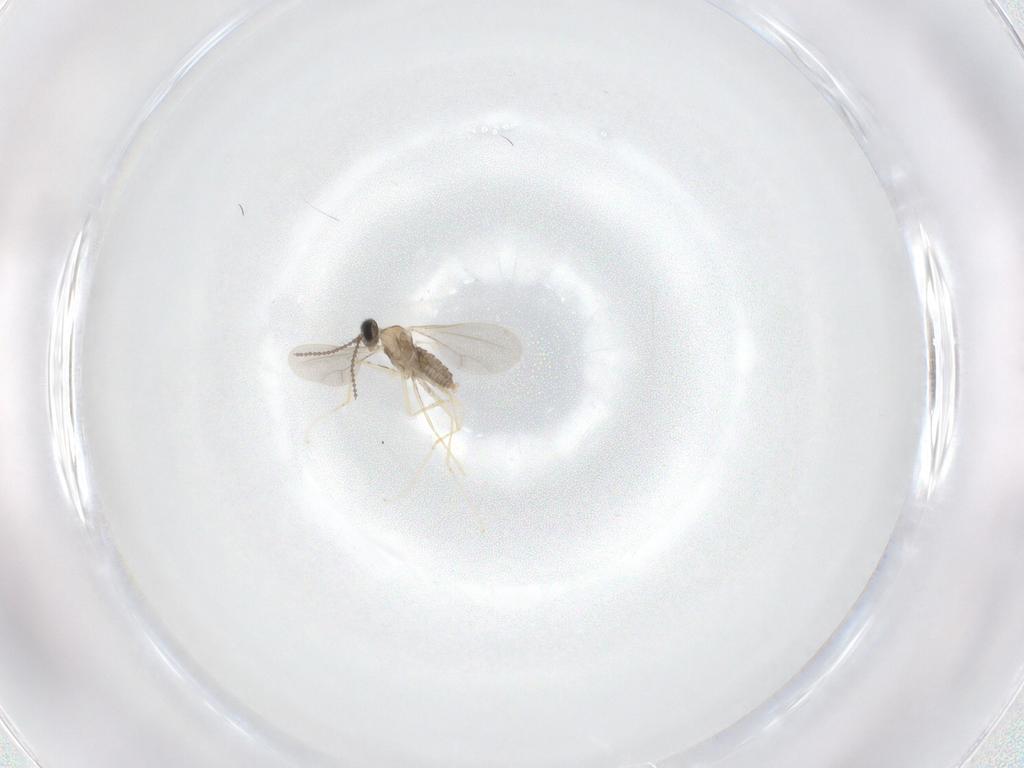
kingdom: Animalia
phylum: Arthropoda
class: Insecta
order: Diptera
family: Cecidomyiidae
